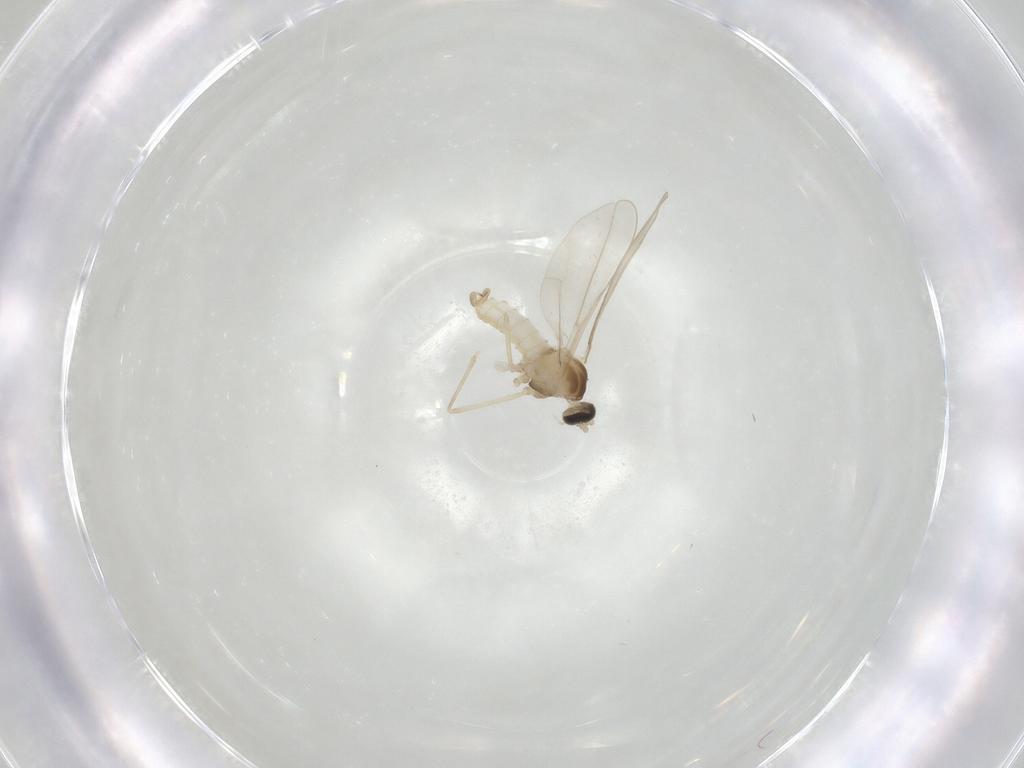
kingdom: Animalia
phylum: Arthropoda
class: Insecta
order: Diptera
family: Cecidomyiidae
